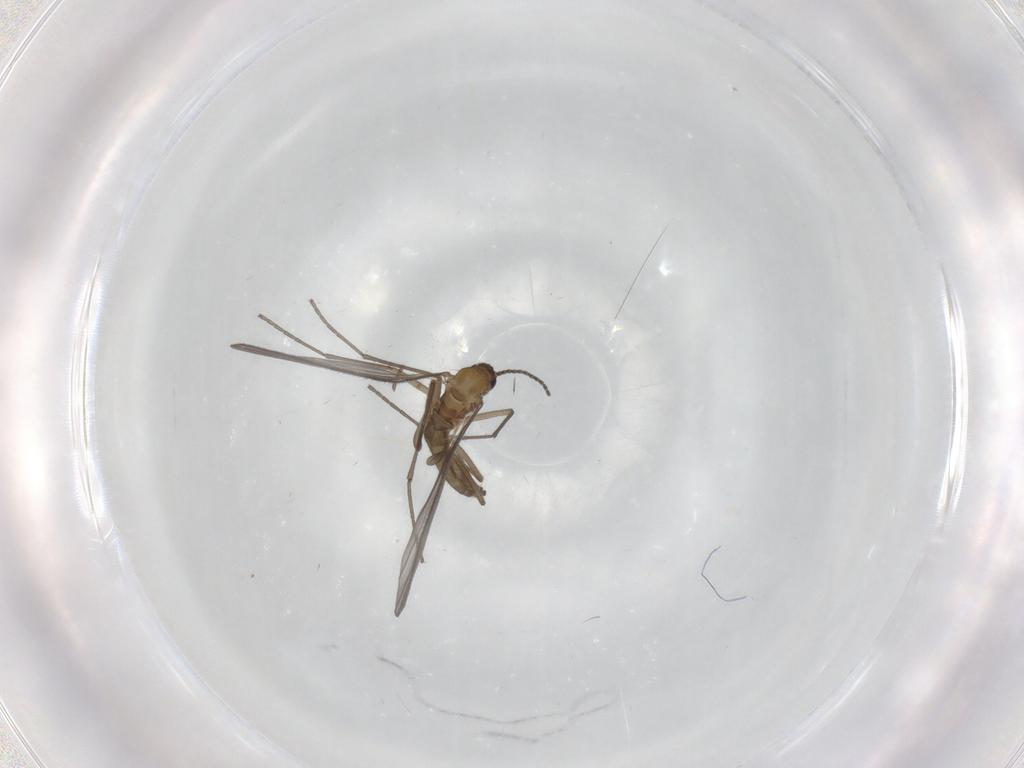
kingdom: Animalia
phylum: Arthropoda
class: Insecta
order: Diptera
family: Sciaridae
